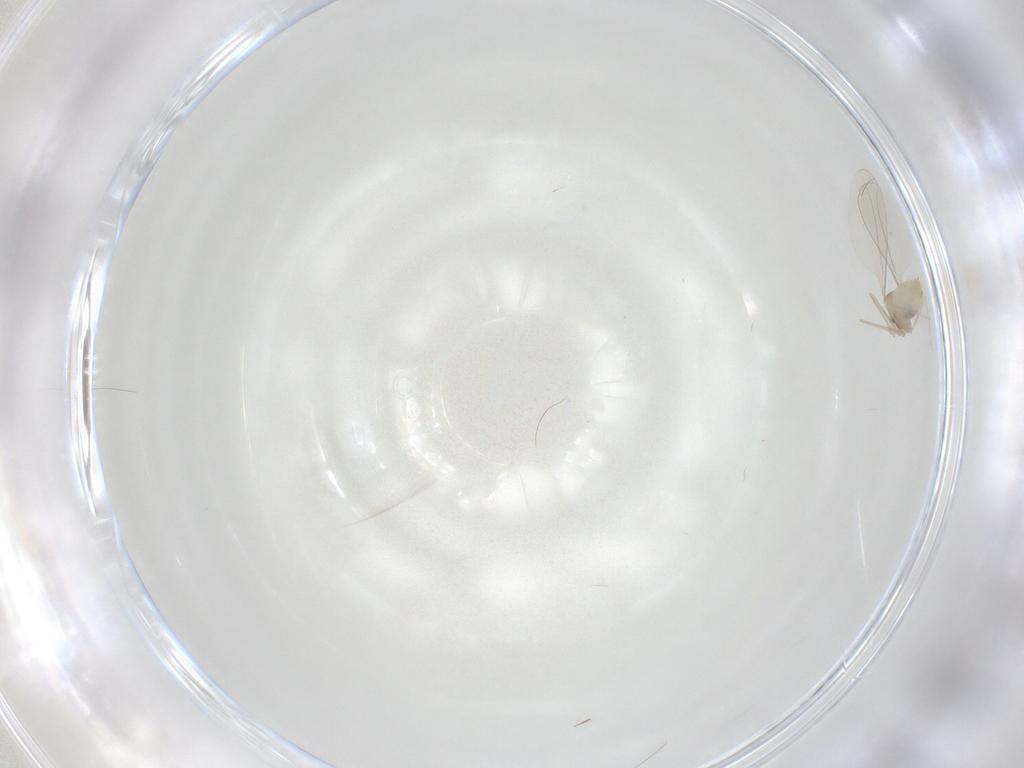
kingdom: Animalia
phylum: Arthropoda
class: Insecta
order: Diptera
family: Cecidomyiidae
